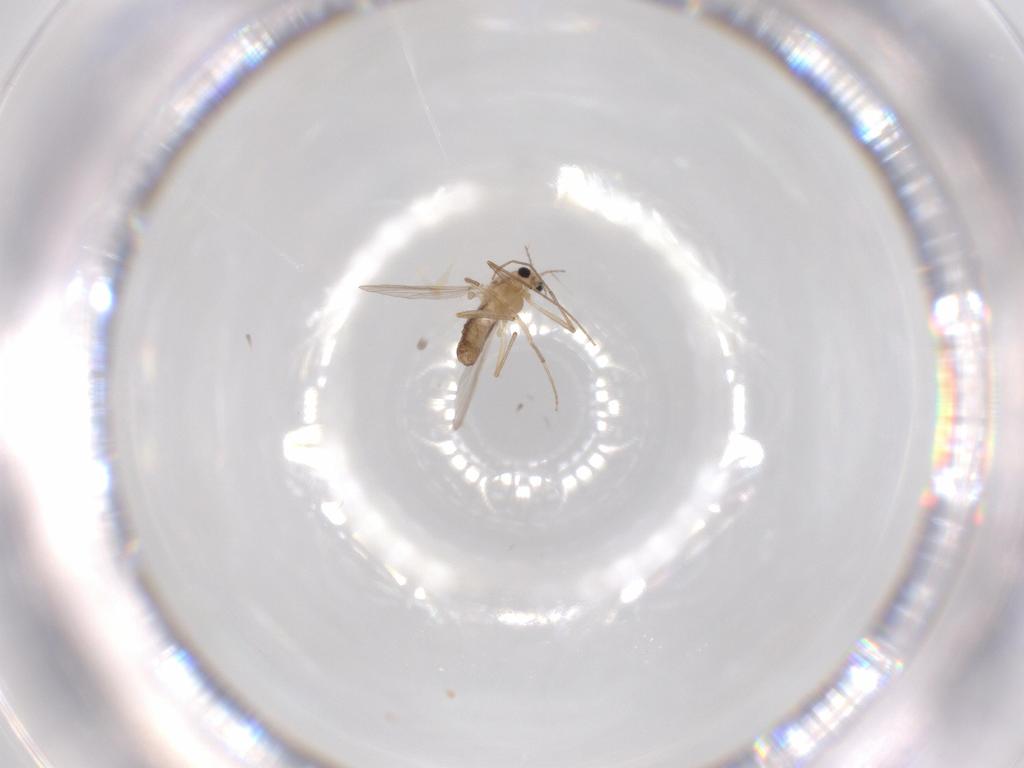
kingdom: Animalia
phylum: Arthropoda
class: Insecta
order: Diptera
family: Chironomidae
